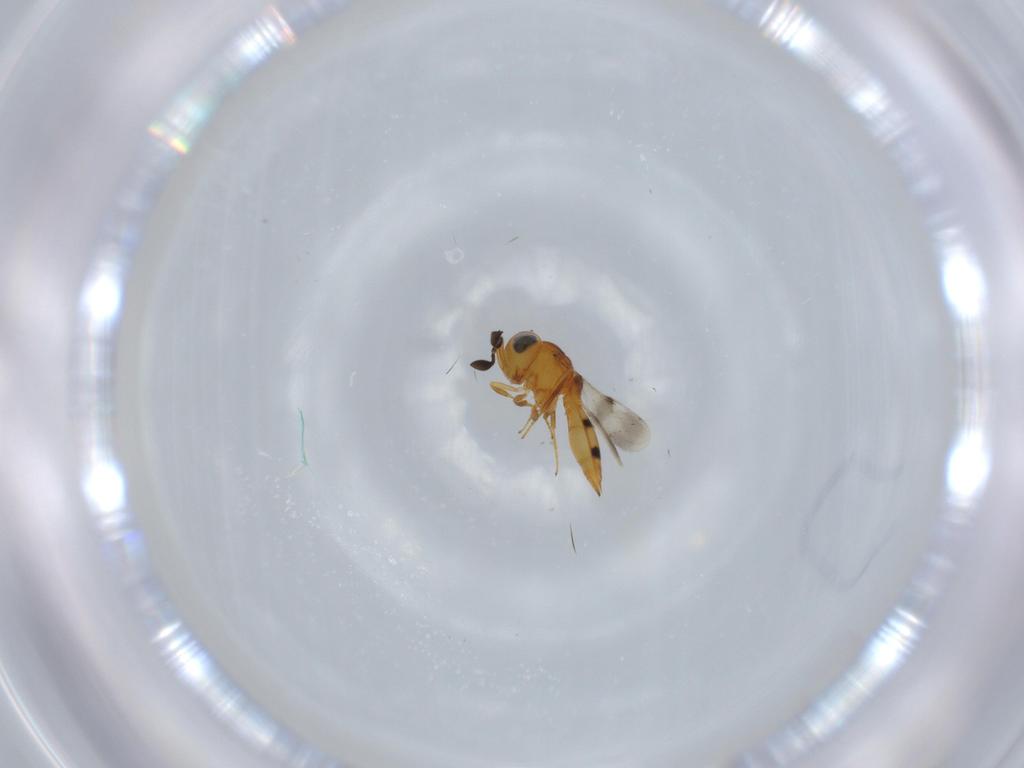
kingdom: Animalia
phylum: Arthropoda
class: Insecta
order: Hymenoptera
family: Scelionidae
